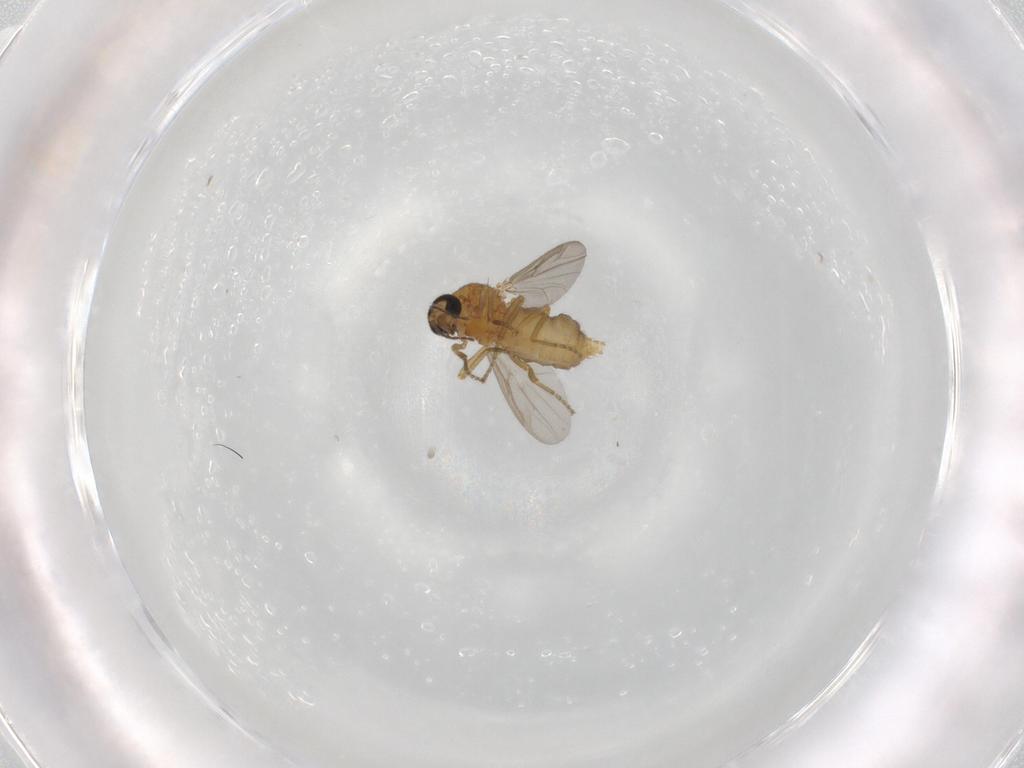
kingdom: Animalia
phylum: Arthropoda
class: Insecta
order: Diptera
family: Ceratopogonidae
